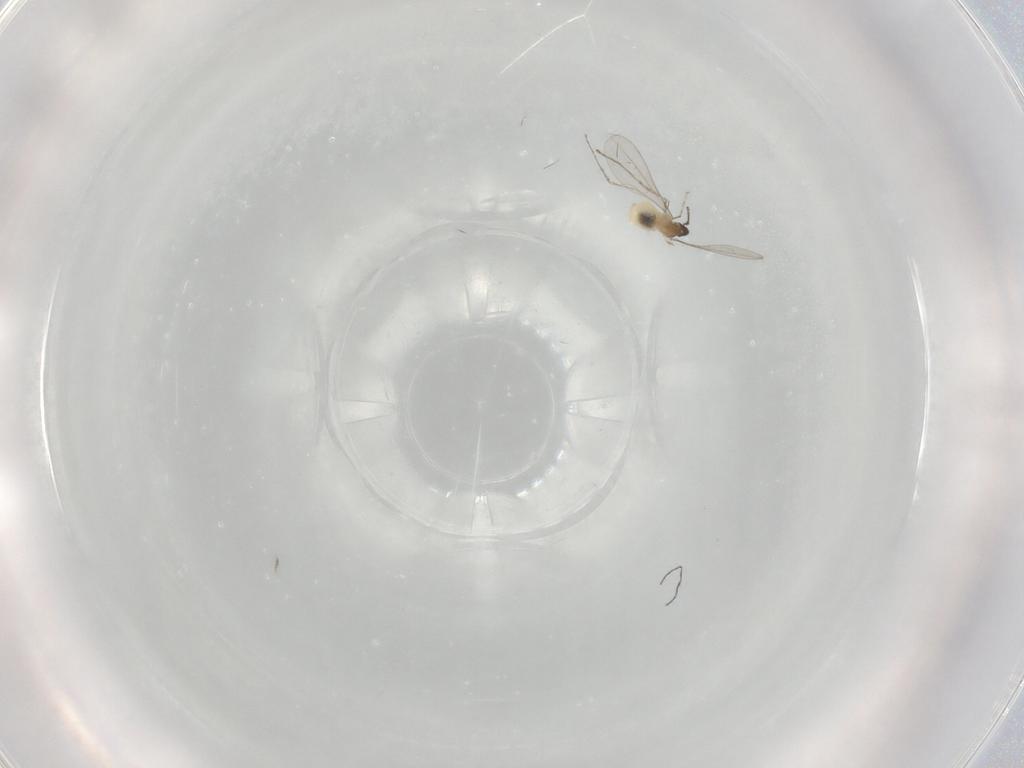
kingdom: Animalia
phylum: Arthropoda
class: Insecta
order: Diptera
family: Cecidomyiidae
